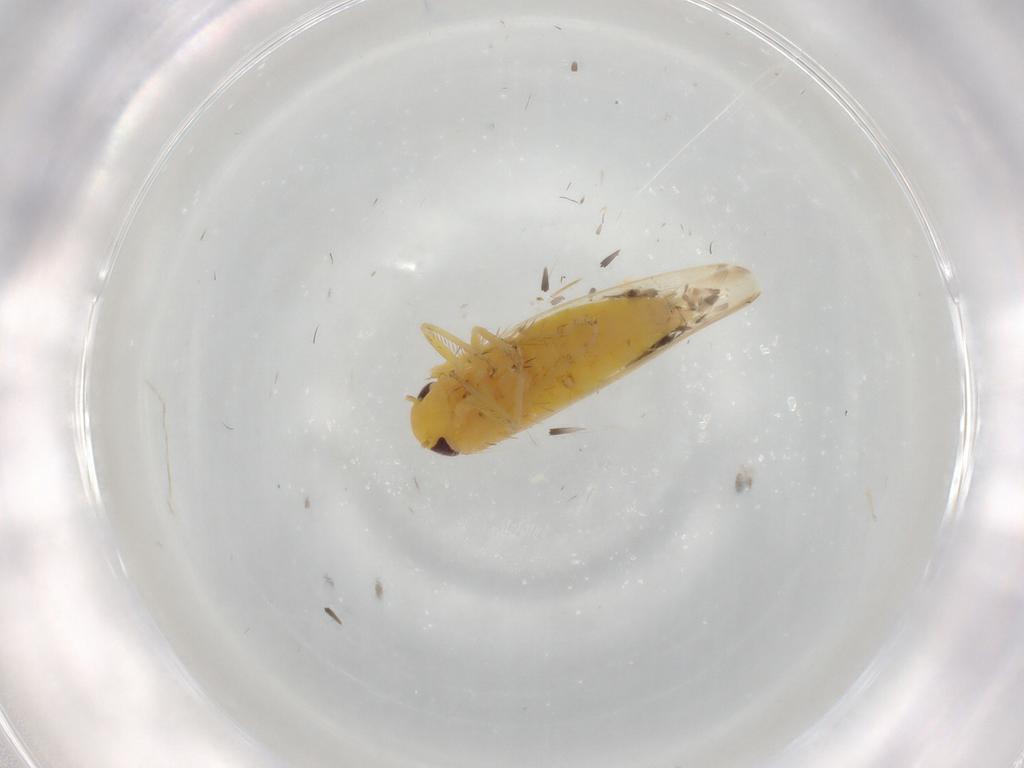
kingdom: Animalia
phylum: Arthropoda
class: Insecta
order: Hemiptera
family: Cicadellidae
